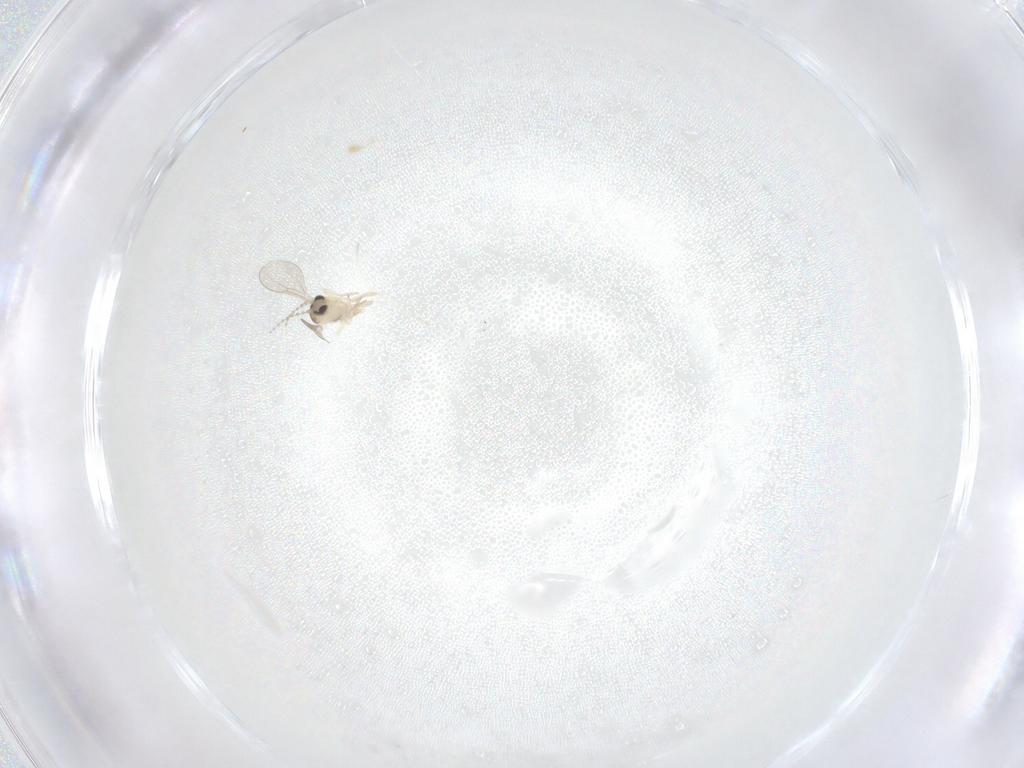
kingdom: Animalia
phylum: Arthropoda
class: Insecta
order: Diptera
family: Cecidomyiidae
